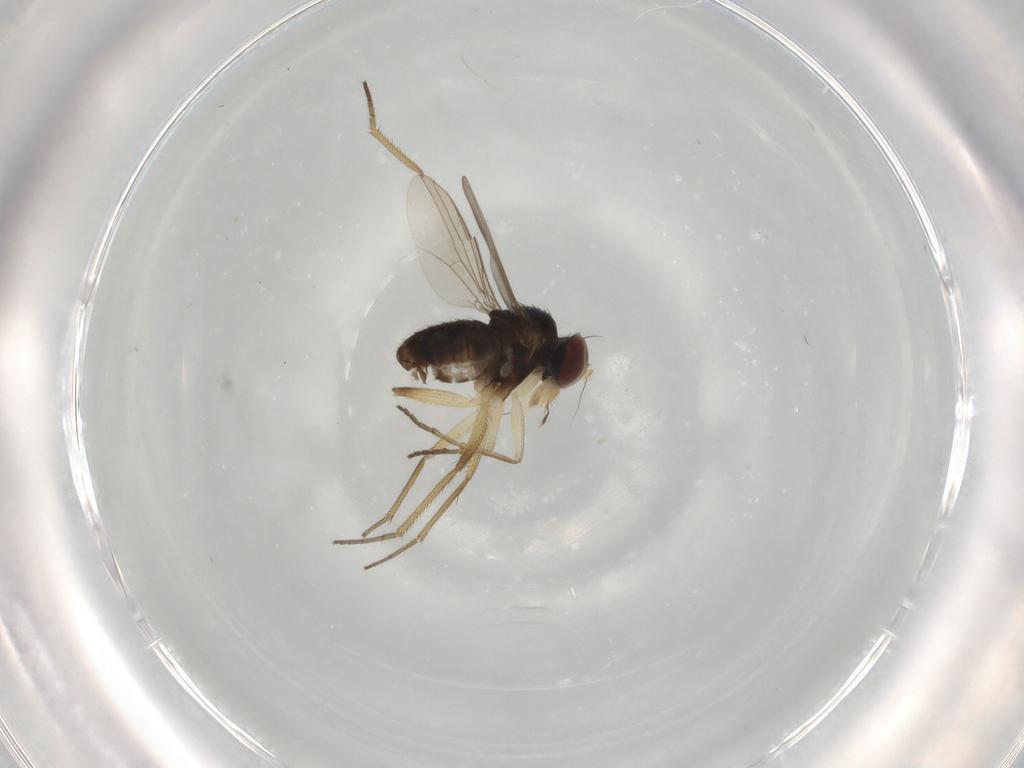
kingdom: Animalia
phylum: Arthropoda
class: Insecta
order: Diptera
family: Dolichopodidae
